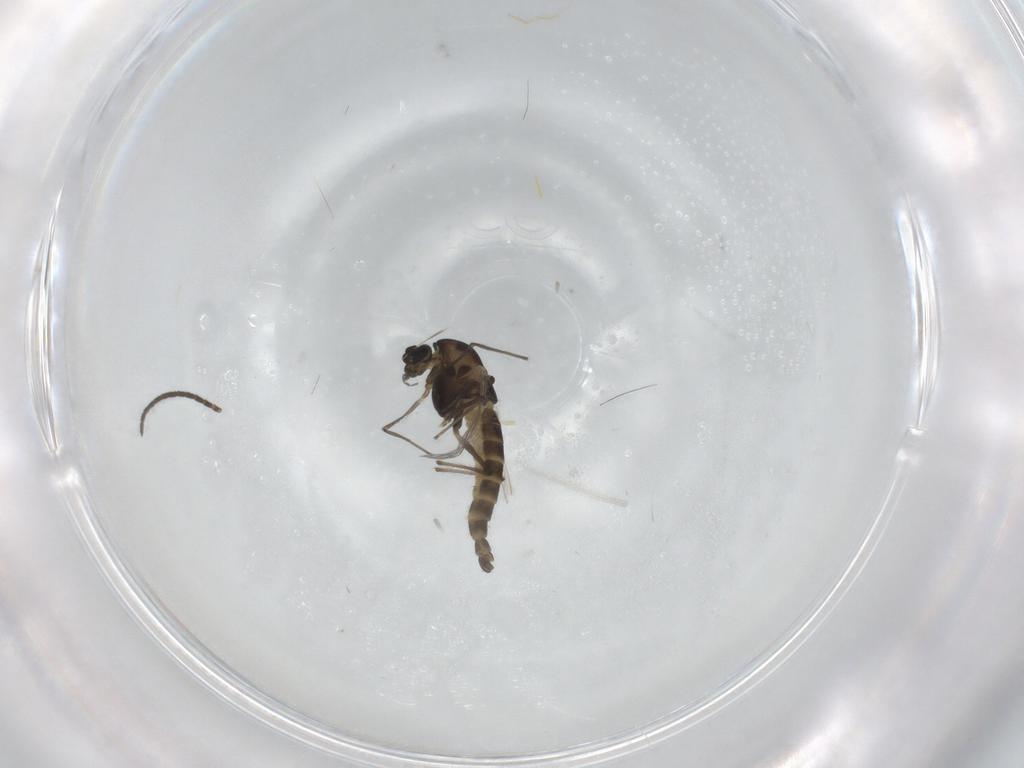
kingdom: Animalia
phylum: Arthropoda
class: Insecta
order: Diptera
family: Chironomidae
